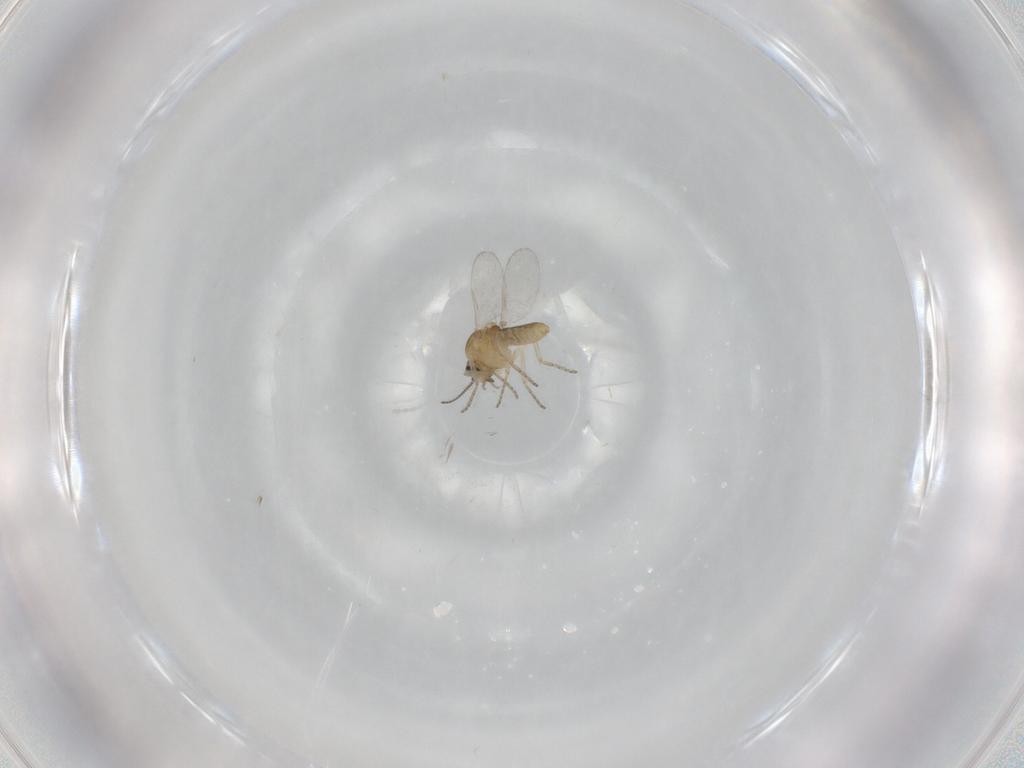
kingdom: Animalia
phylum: Arthropoda
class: Insecta
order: Diptera
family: Ceratopogonidae
